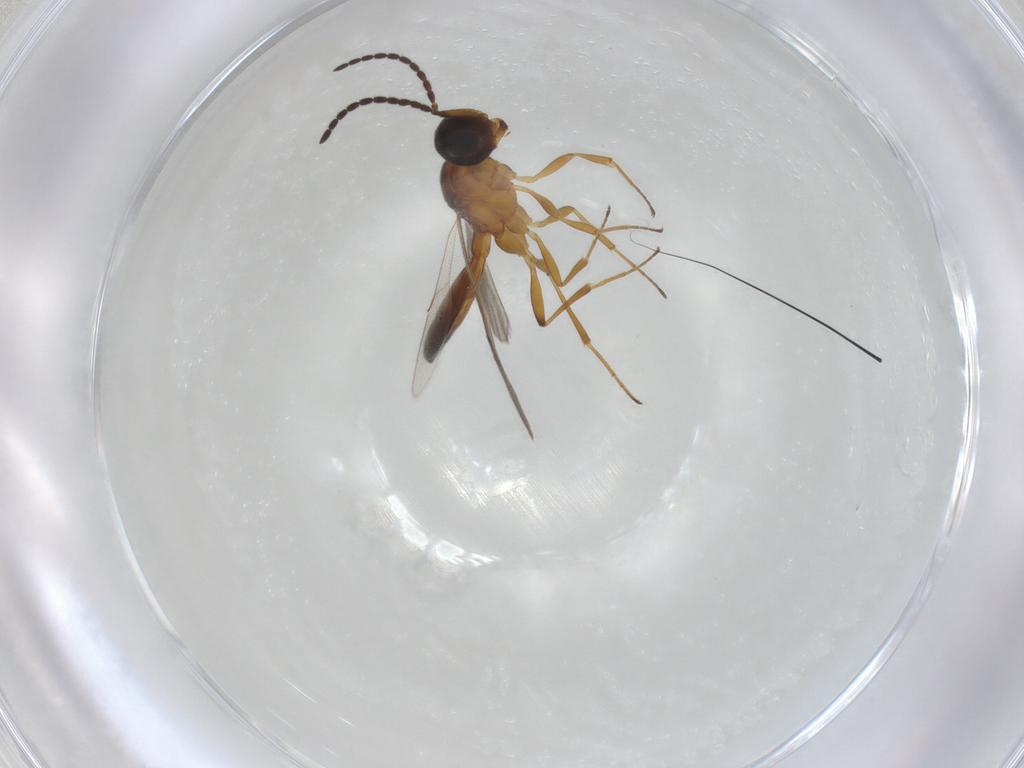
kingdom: Animalia
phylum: Arthropoda
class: Insecta
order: Hymenoptera
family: Scelionidae
